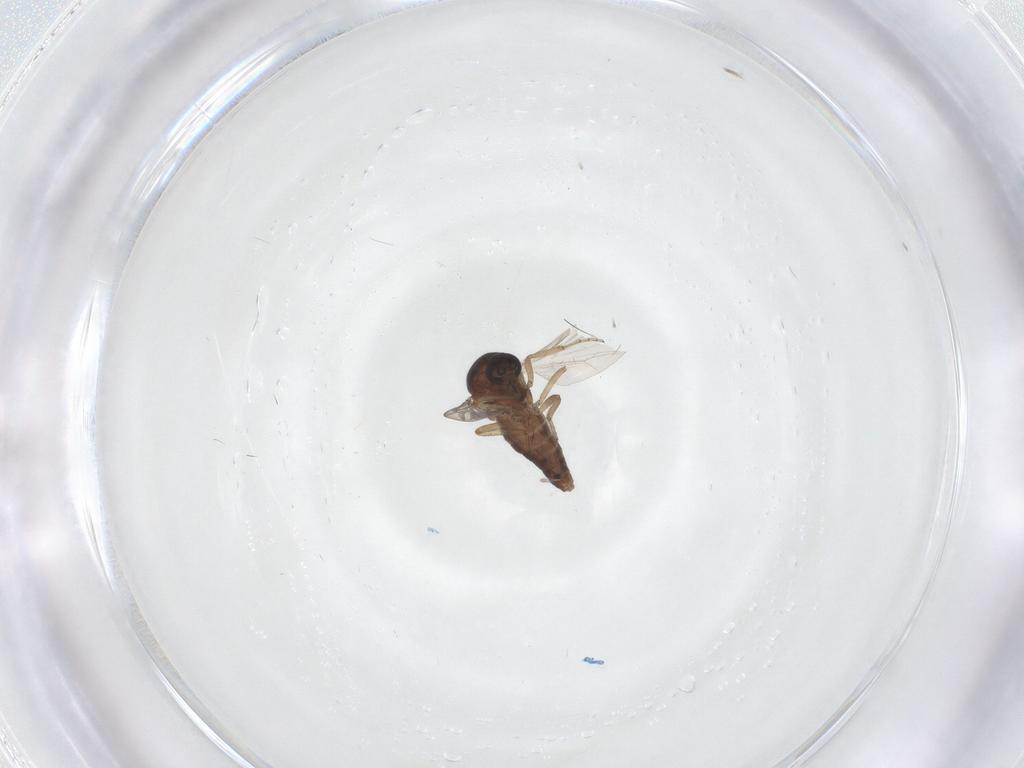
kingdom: Animalia
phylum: Arthropoda
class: Insecta
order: Diptera
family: Ceratopogonidae
